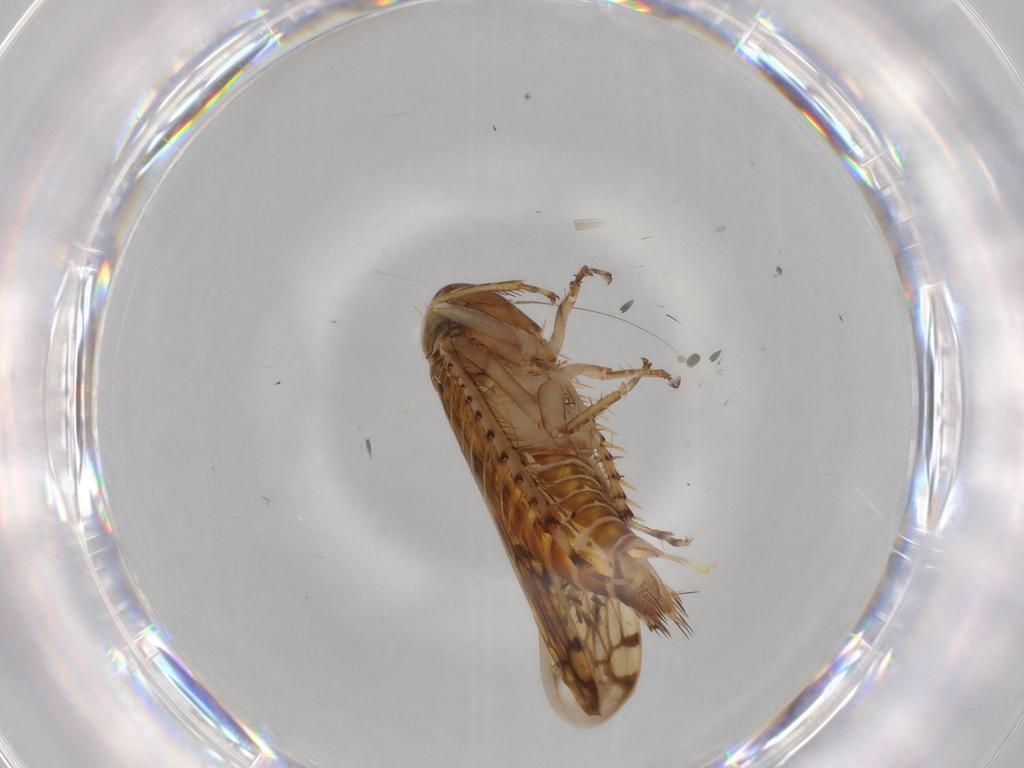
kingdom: Animalia
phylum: Arthropoda
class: Insecta
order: Hemiptera
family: Cicadellidae
